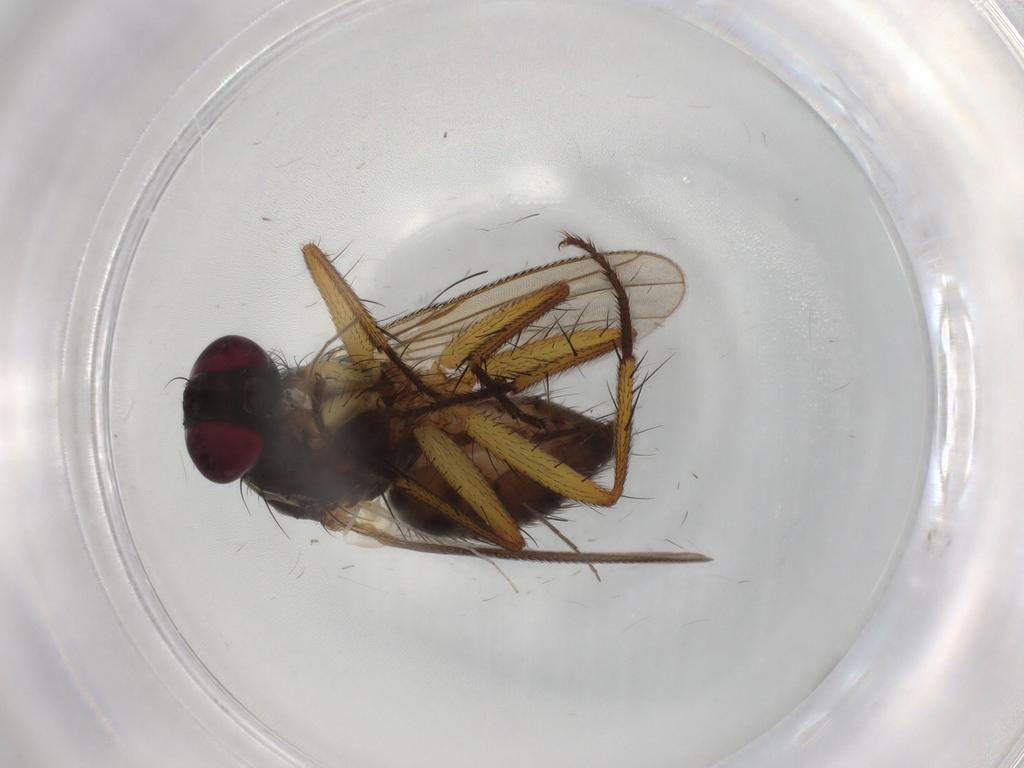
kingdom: Animalia
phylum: Arthropoda
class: Insecta
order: Diptera
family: Muscidae
